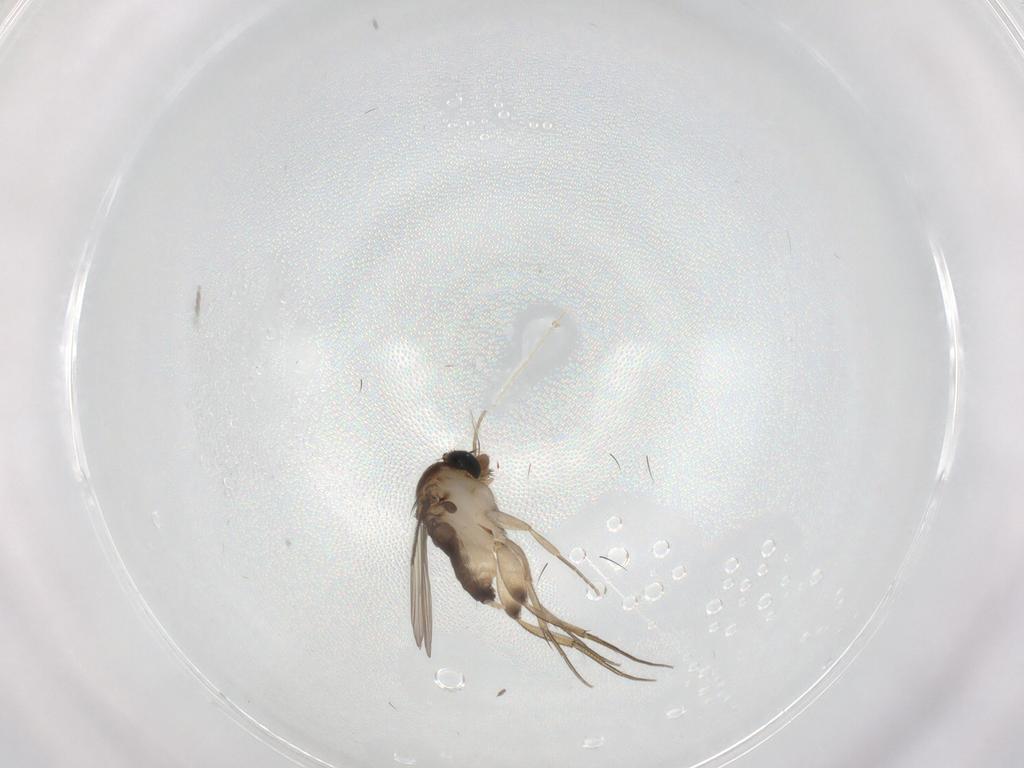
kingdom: Animalia
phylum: Arthropoda
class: Insecta
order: Diptera
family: Phoridae
